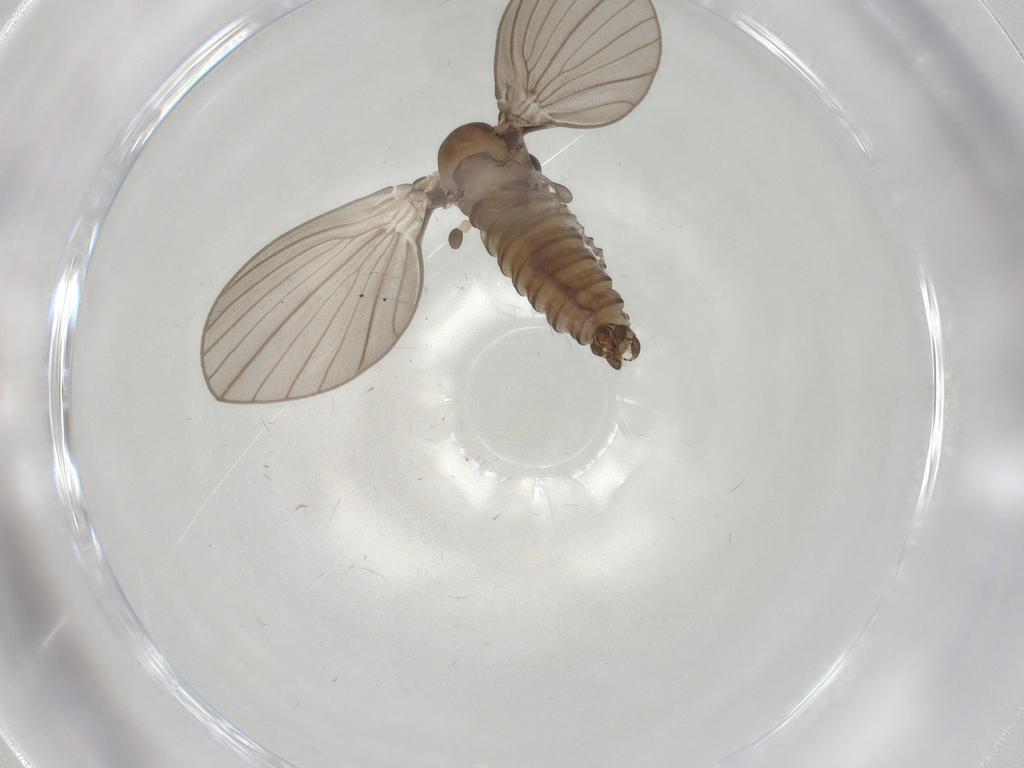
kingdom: Animalia
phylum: Arthropoda
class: Insecta
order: Diptera
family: Psychodidae
